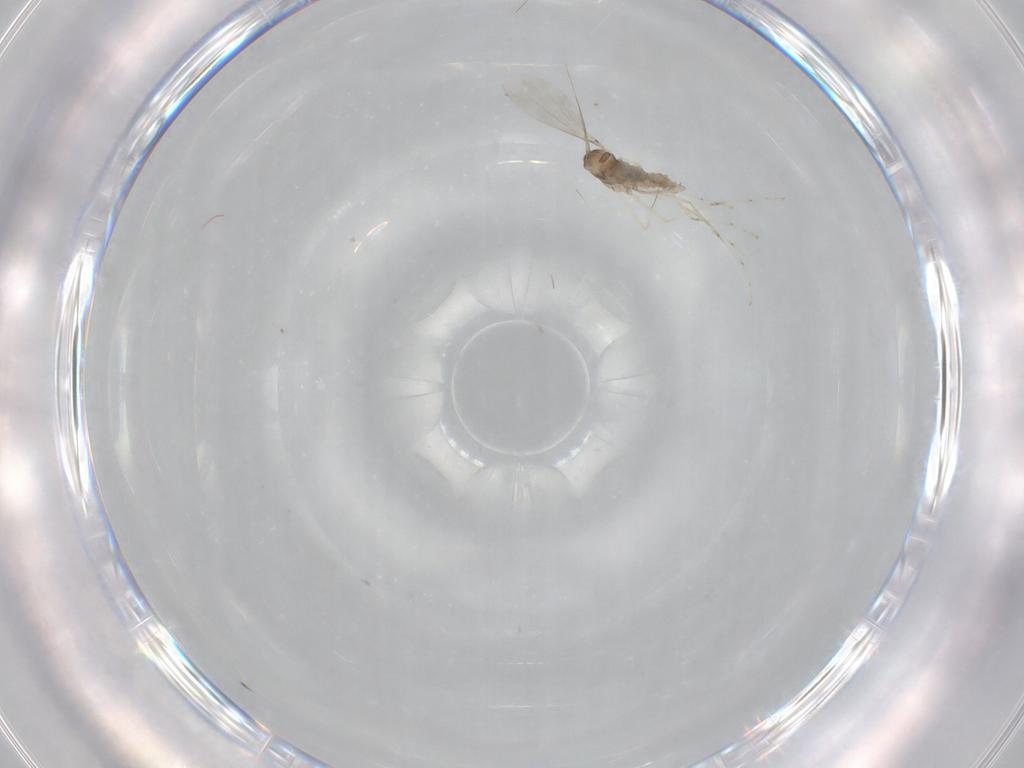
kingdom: Animalia
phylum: Arthropoda
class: Insecta
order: Diptera
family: Cecidomyiidae
